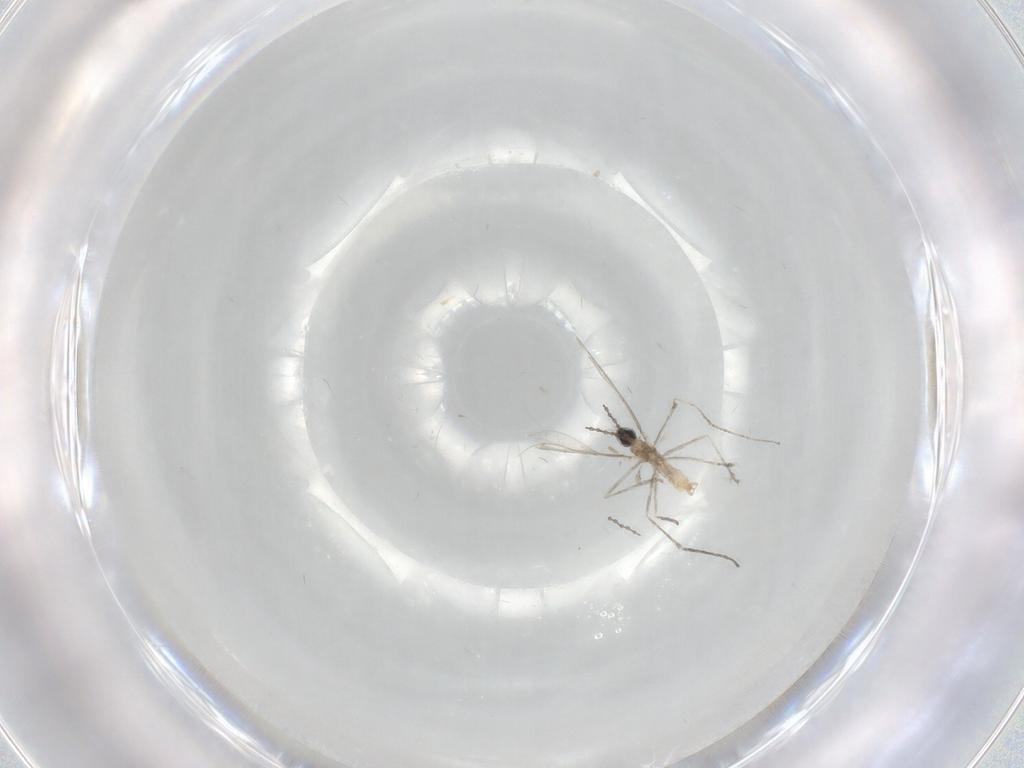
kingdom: Animalia
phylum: Arthropoda
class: Insecta
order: Diptera
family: Cecidomyiidae
